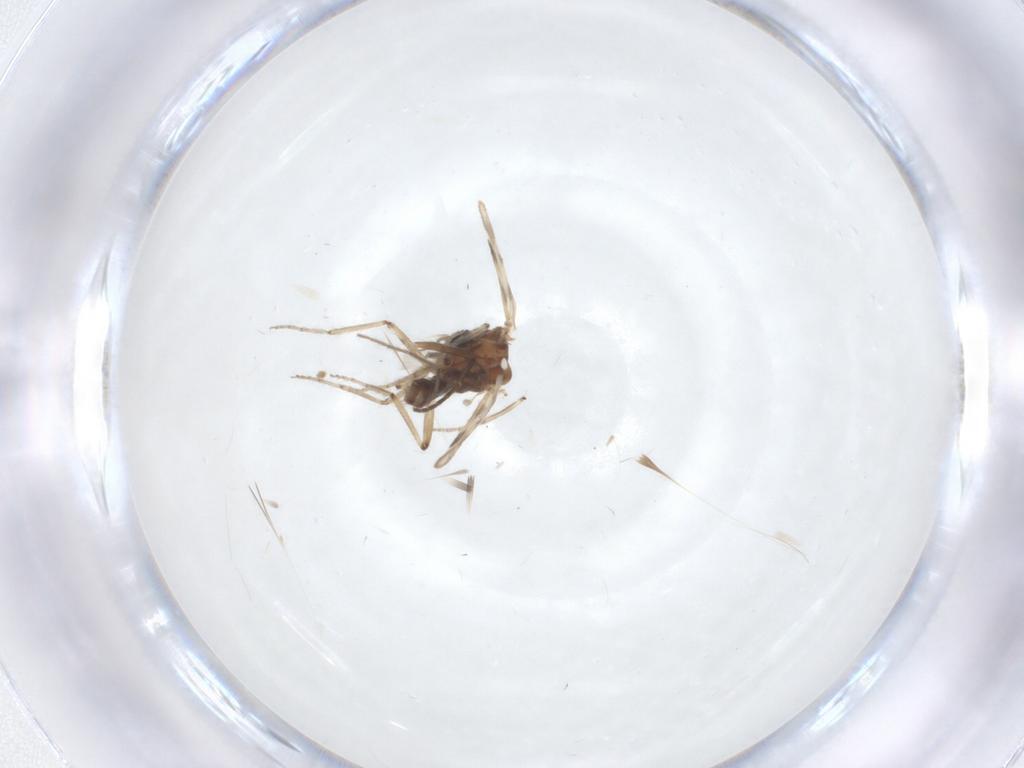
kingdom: Animalia
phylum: Arthropoda
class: Insecta
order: Diptera
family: Ceratopogonidae
